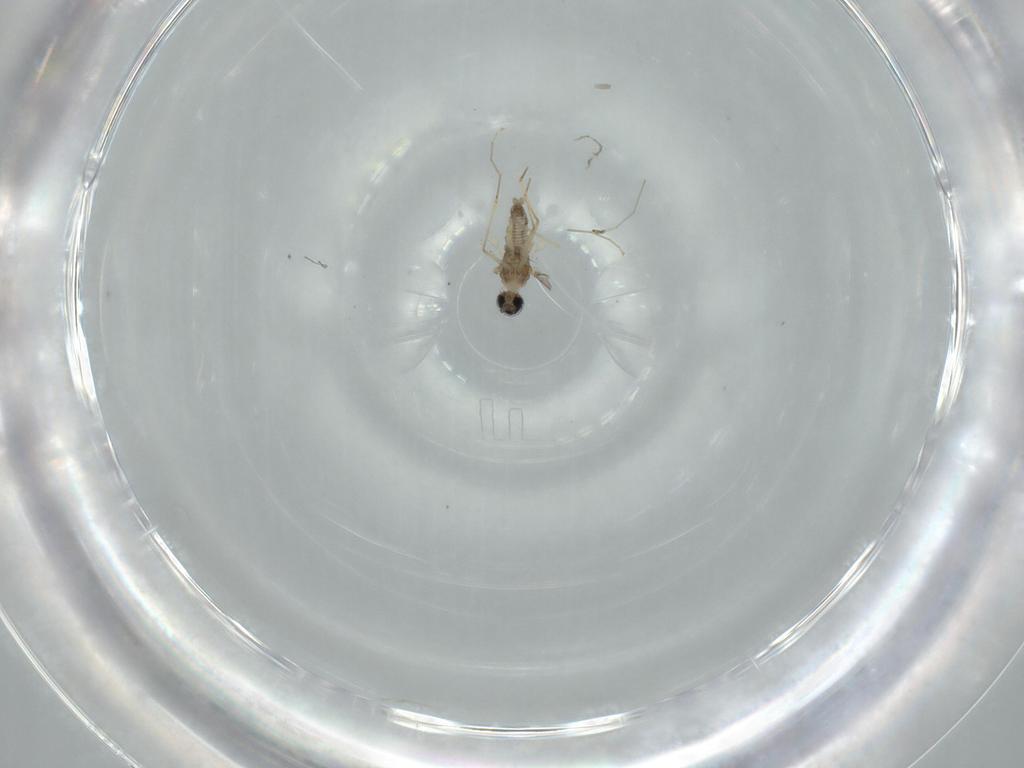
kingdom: Animalia
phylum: Arthropoda
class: Insecta
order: Diptera
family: Cecidomyiidae
